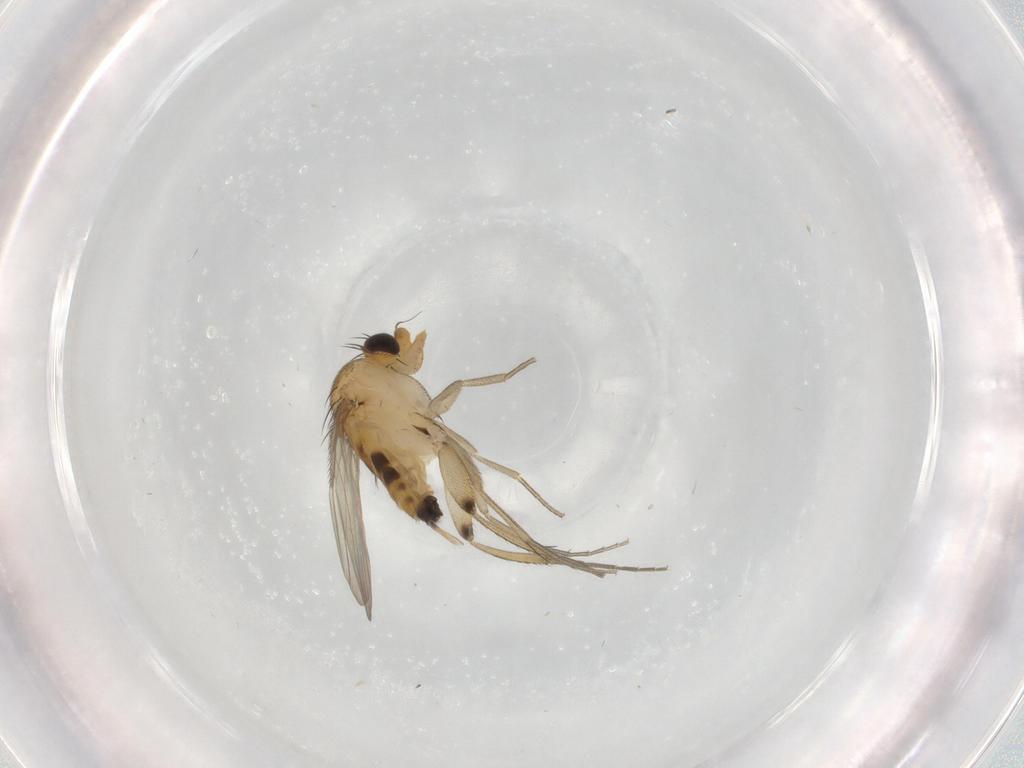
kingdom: Animalia
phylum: Arthropoda
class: Insecta
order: Diptera
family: Phoridae
